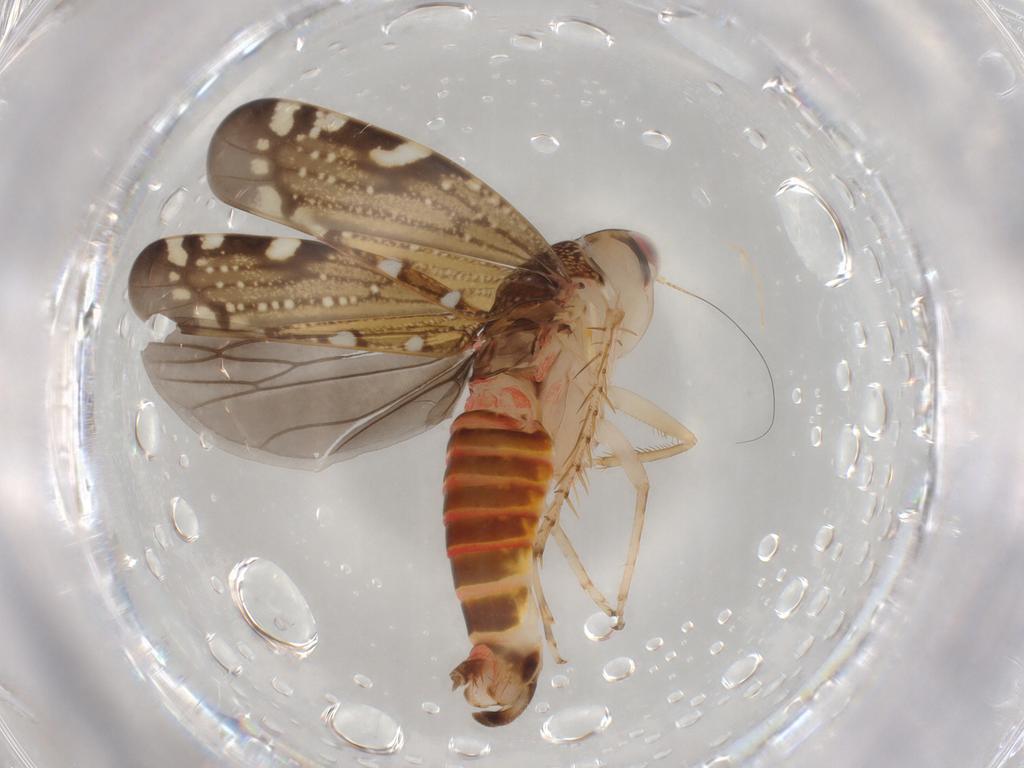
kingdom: Animalia
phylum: Arthropoda
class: Insecta
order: Hemiptera
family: Cicadellidae
